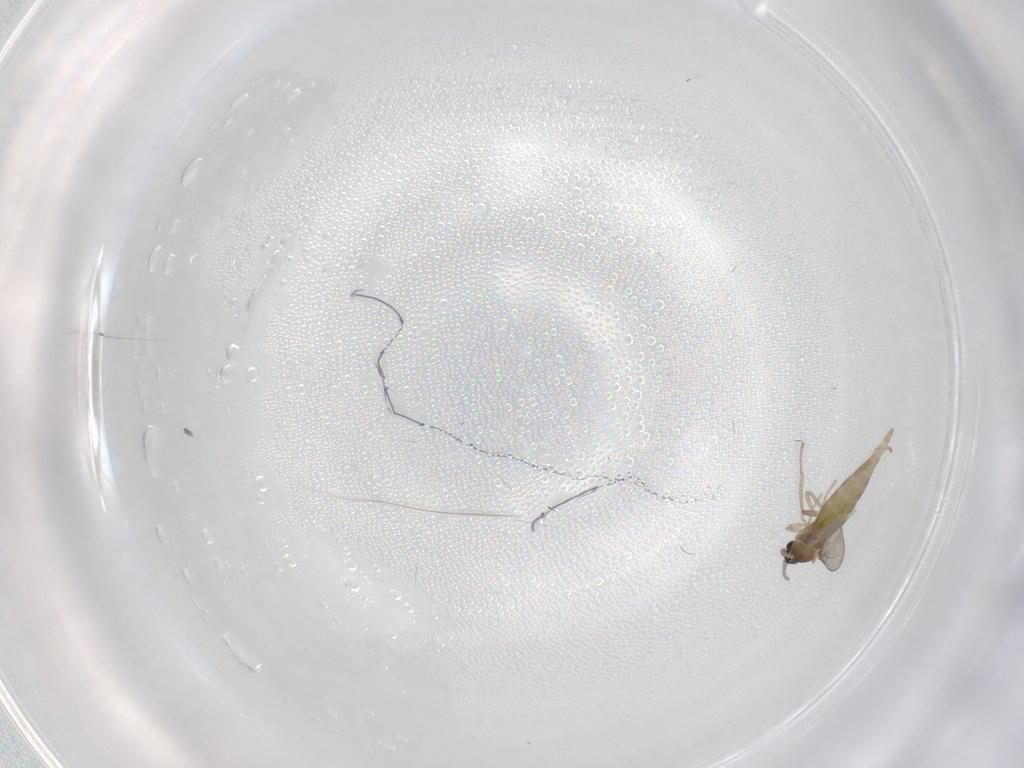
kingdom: Animalia
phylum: Arthropoda
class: Insecta
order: Diptera
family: Cecidomyiidae
